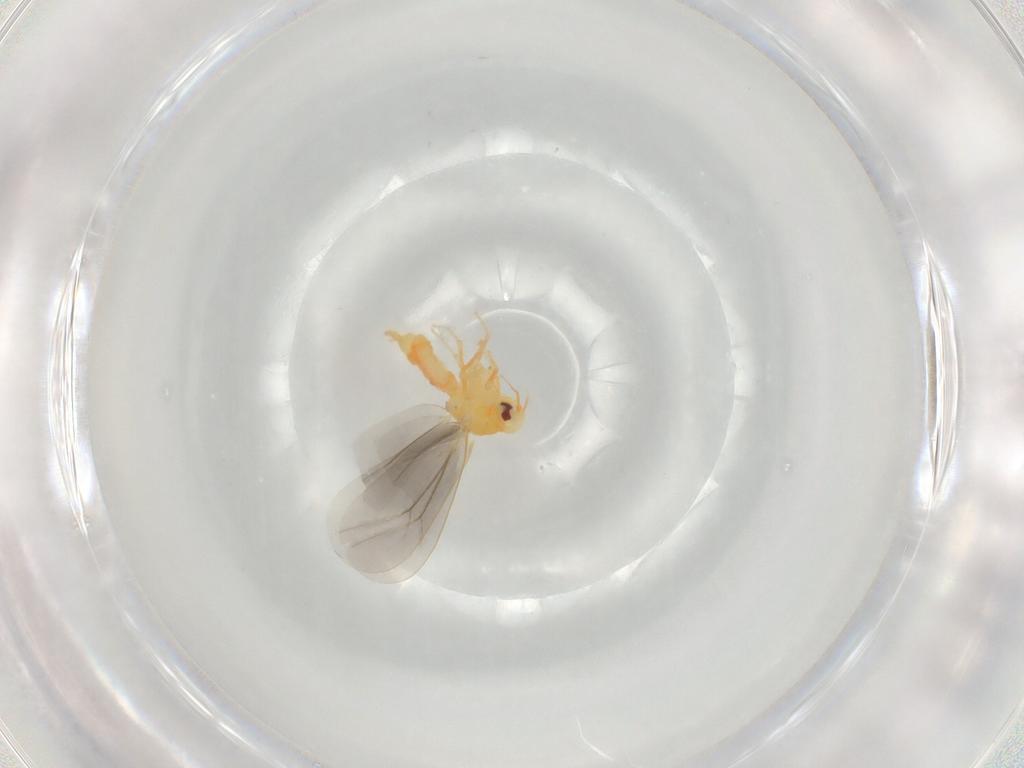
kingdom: Animalia
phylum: Arthropoda
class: Insecta
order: Hemiptera
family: Aleyrodidae
